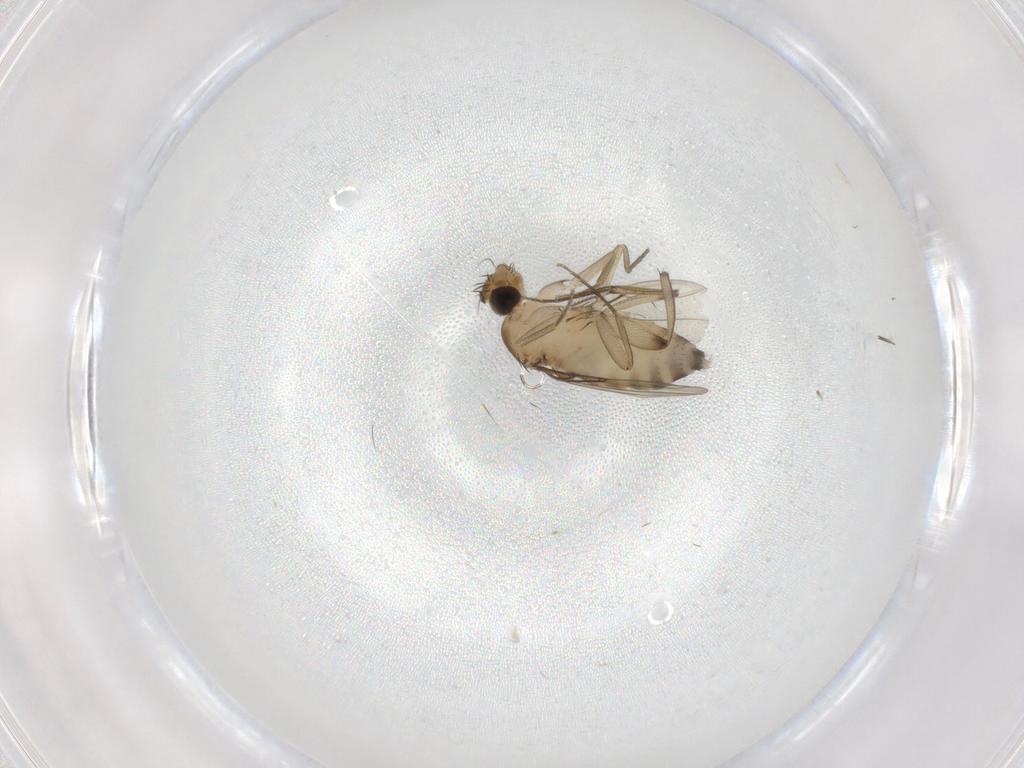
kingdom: Animalia
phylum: Arthropoda
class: Insecta
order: Diptera
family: Phoridae
